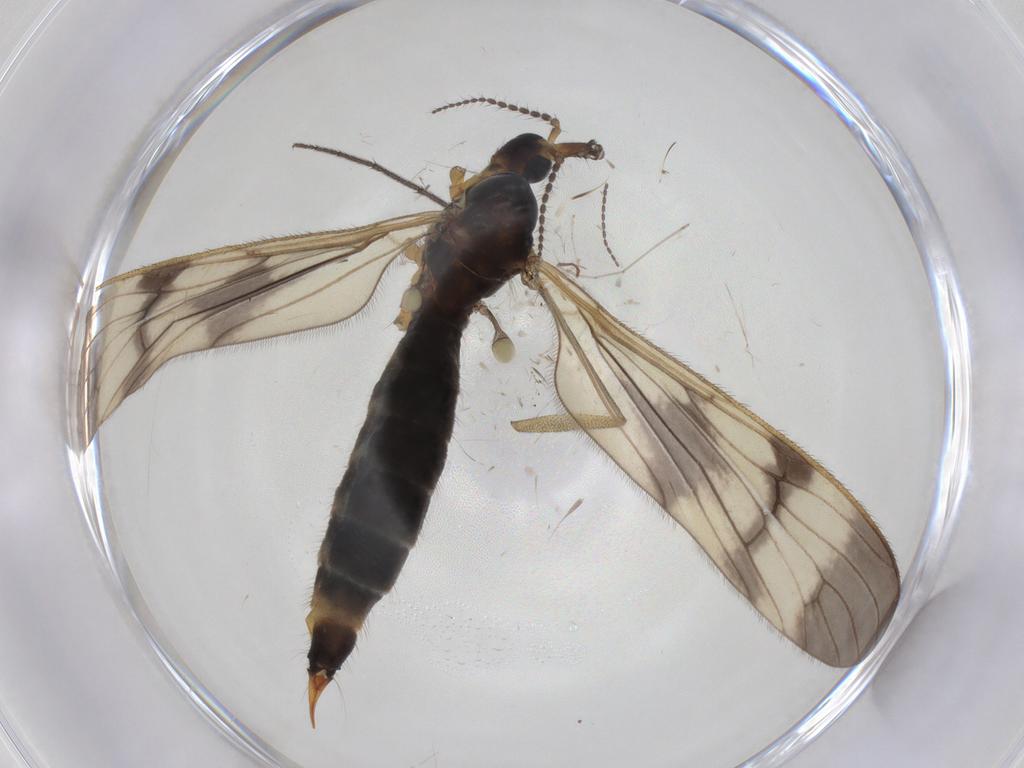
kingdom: Animalia
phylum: Arthropoda
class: Insecta
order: Diptera
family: Limoniidae
